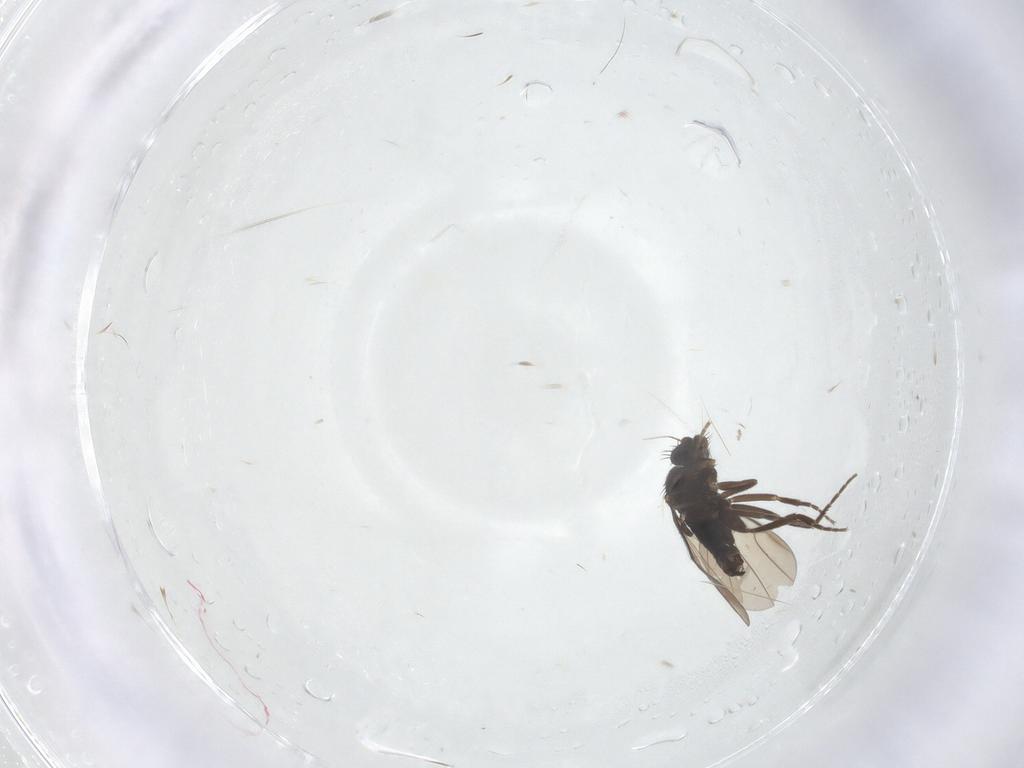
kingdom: Animalia
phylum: Arthropoda
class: Insecta
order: Diptera
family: Phoridae
